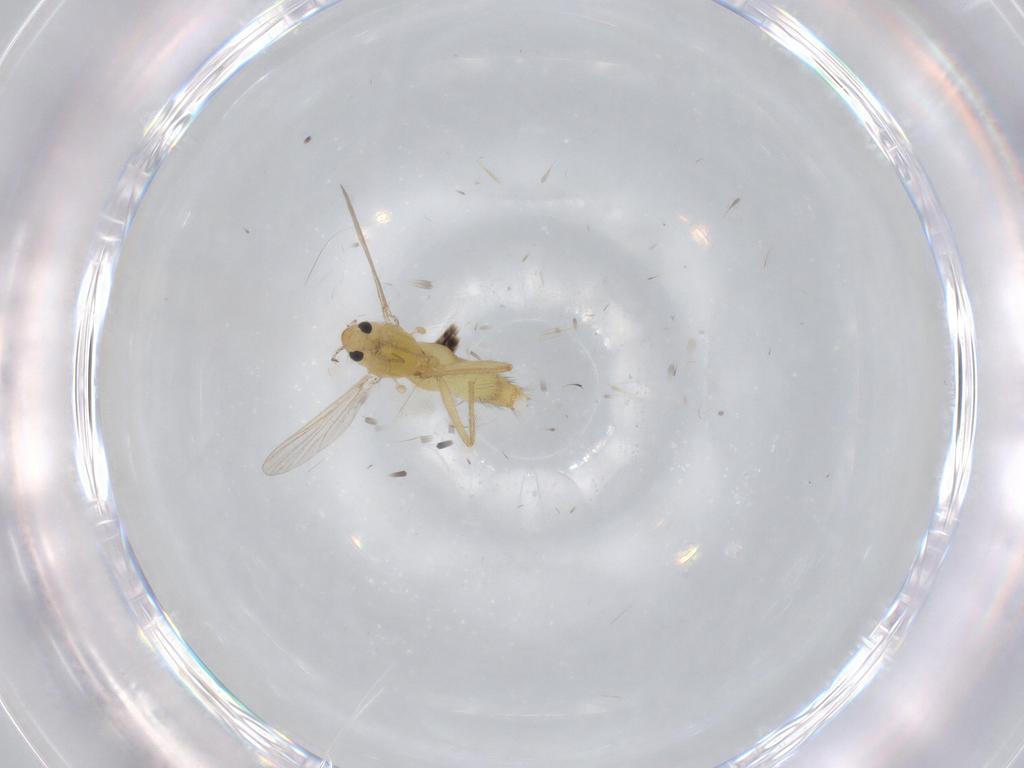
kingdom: Animalia
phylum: Arthropoda
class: Insecta
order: Diptera
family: Chironomidae
